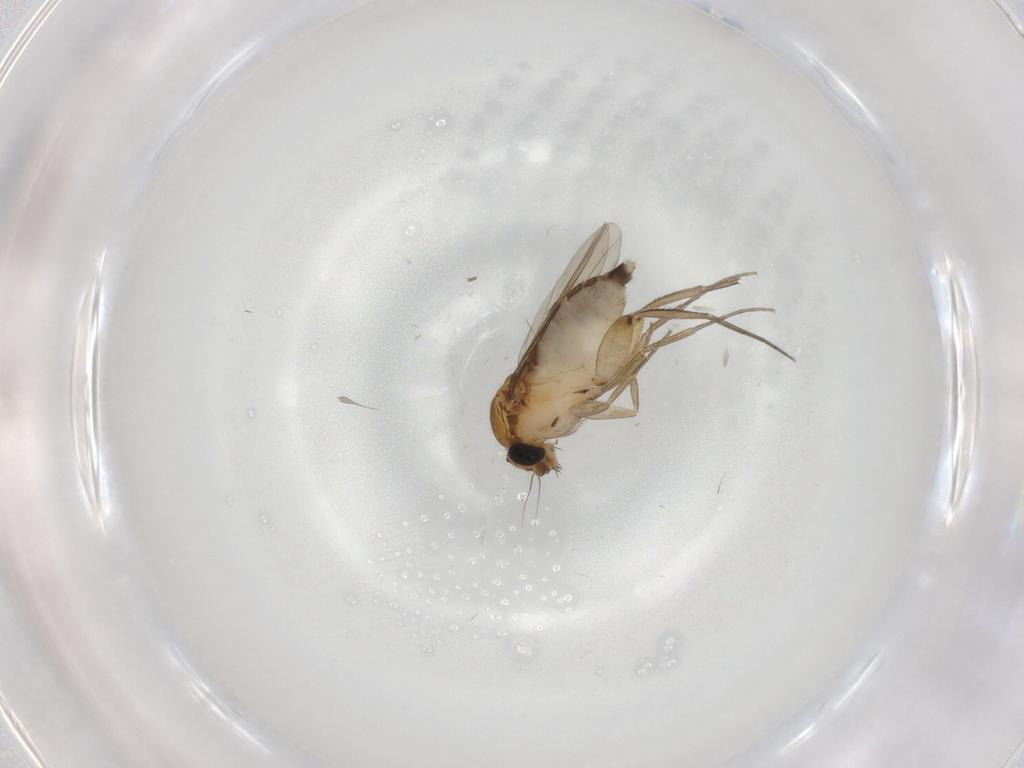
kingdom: Animalia
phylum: Arthropoda
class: Insecta
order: Diptera
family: Phoridae
